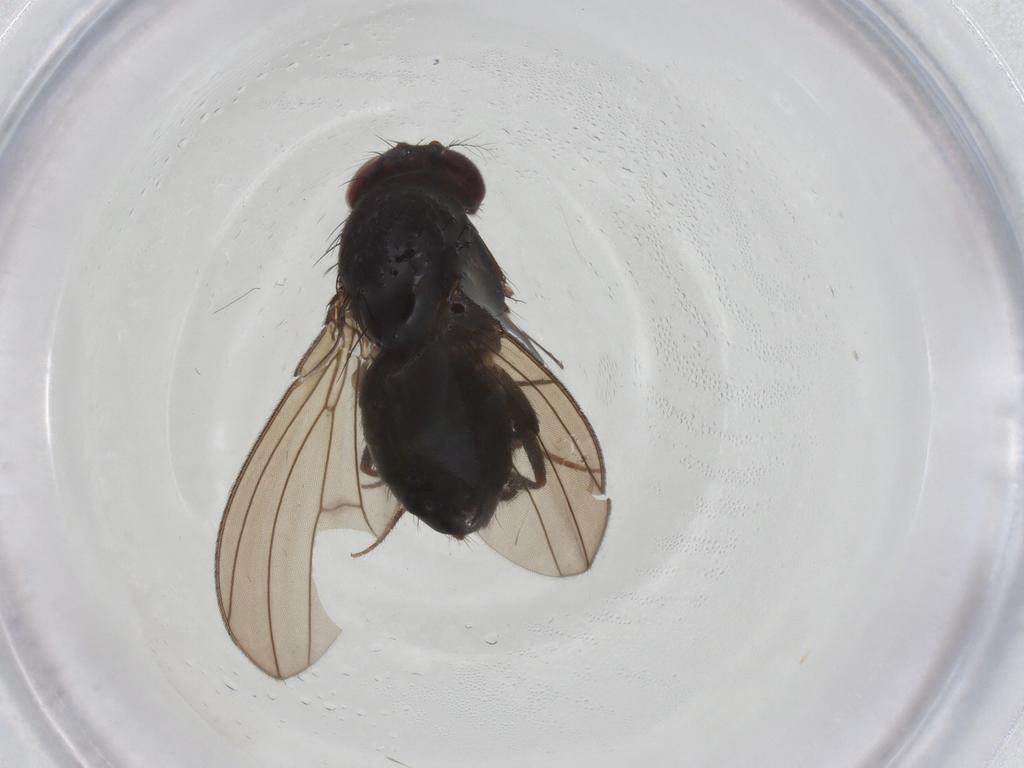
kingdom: Animalia
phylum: Arthropoda
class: Insecta
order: Diptera
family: Drosophilidae
